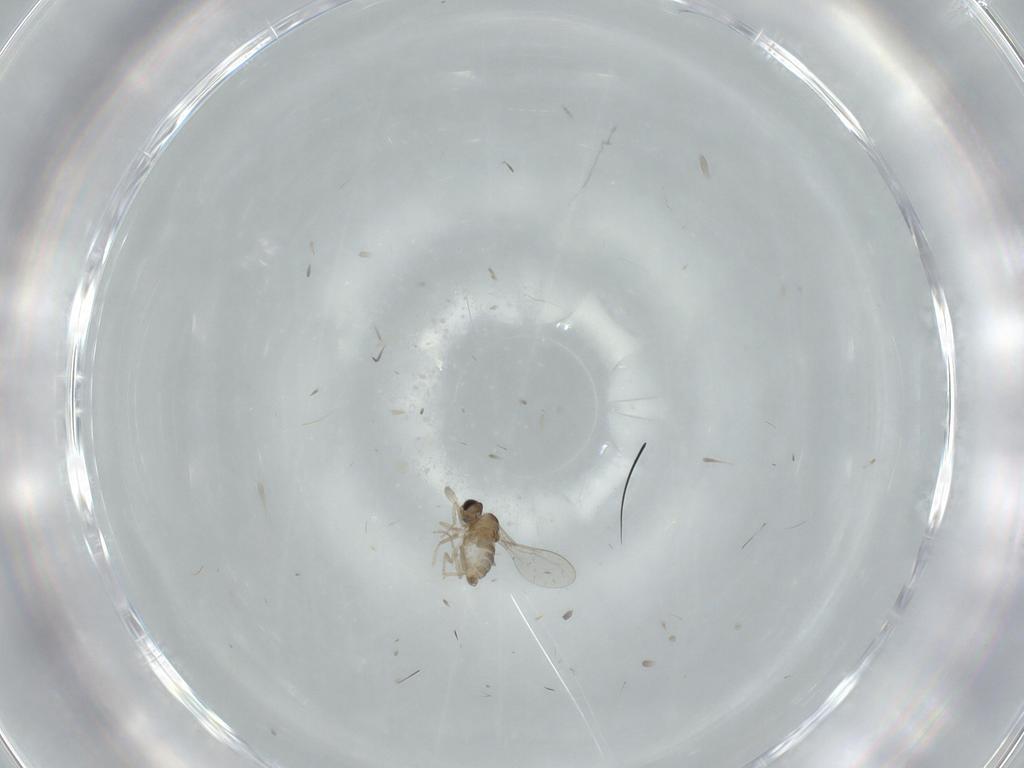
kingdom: Animalia
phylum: Arthropoda
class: Insecta
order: Diptera
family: Cecidomyiidae
